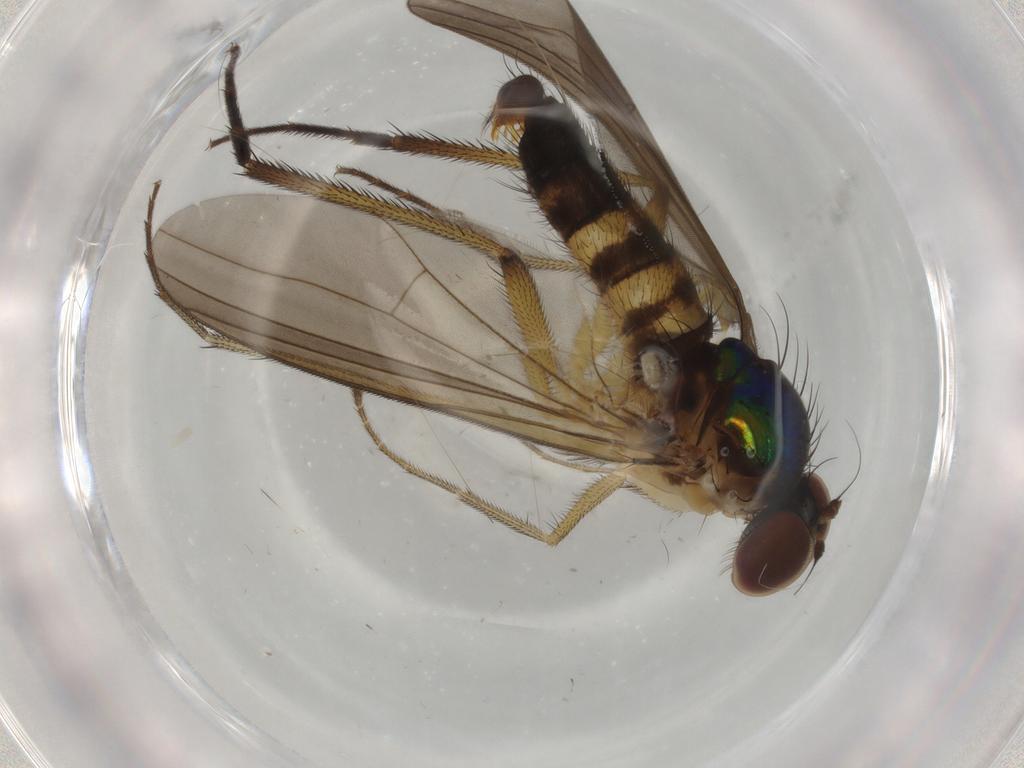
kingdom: Animalia
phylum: Arthropoda
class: Insecta
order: Diptera
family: Dolichopodidae
